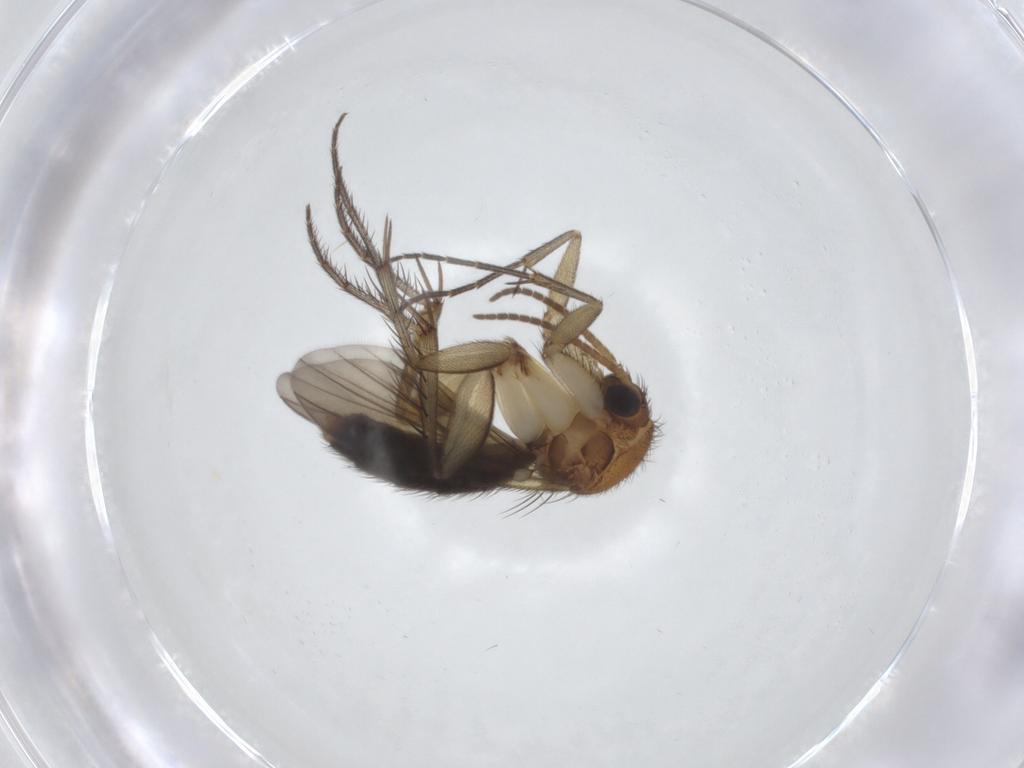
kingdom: Animalia
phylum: Arthropoda
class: Insecta
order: Diptera
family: Mycetophilidae
